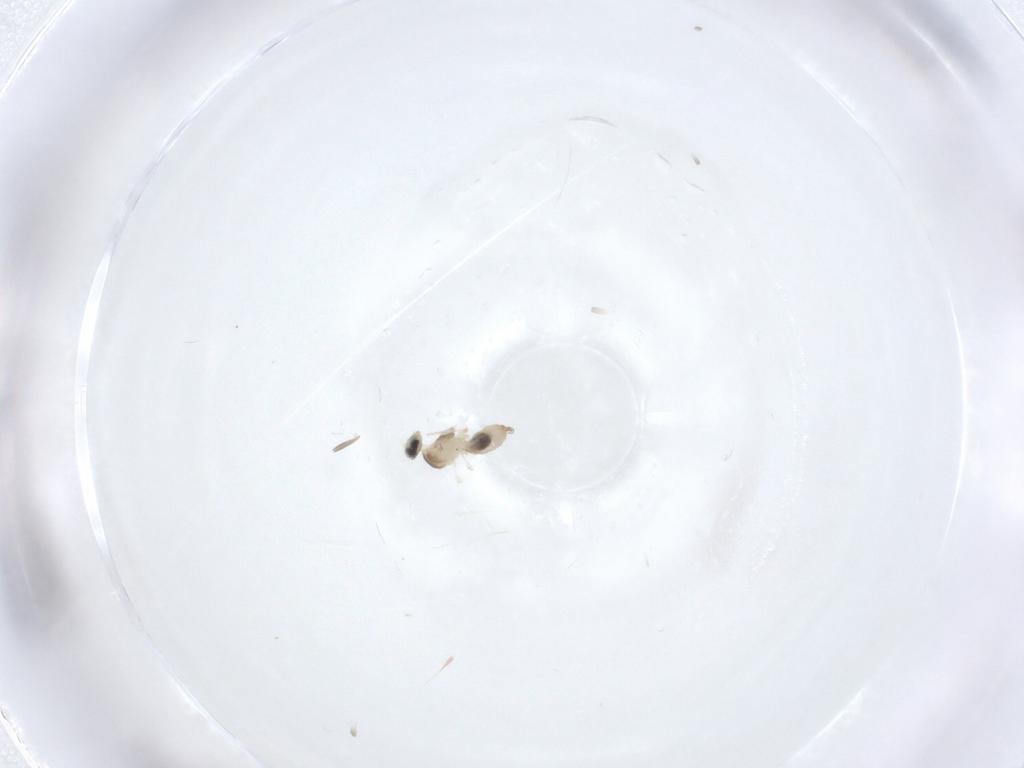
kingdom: Animalia
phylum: Arthropoda
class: Insecta
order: Diptera
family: Cecidomyiidae
